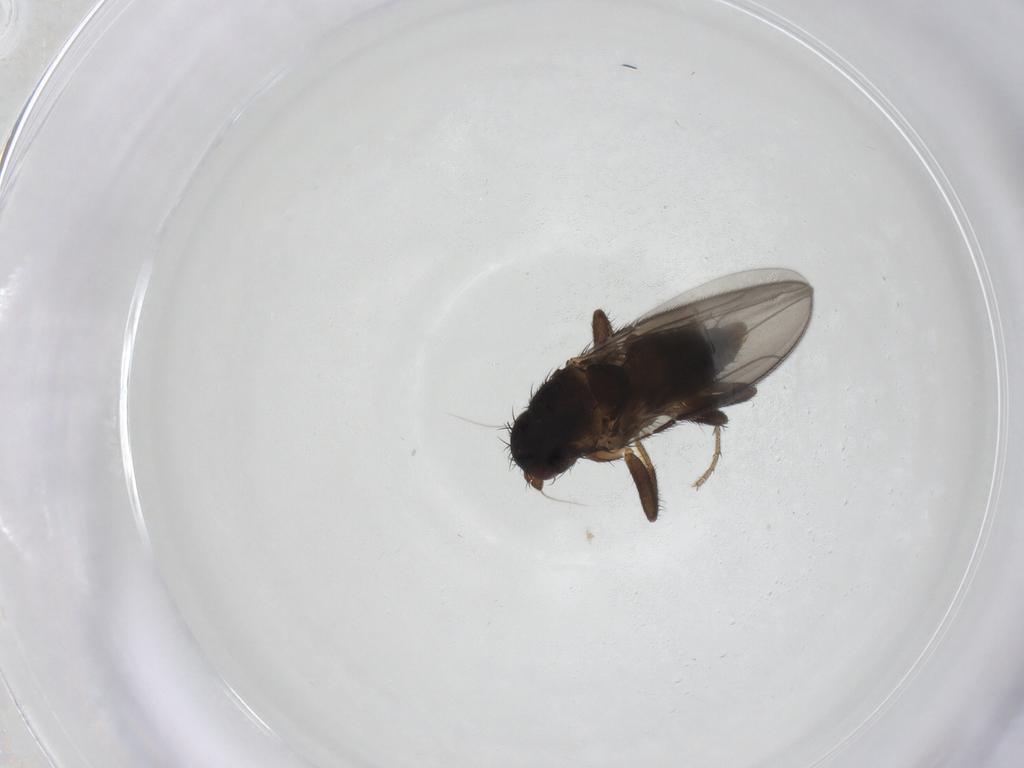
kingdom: Animalia
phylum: Arthropoda
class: Insecta
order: Diptera
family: Sphaeroceridae
